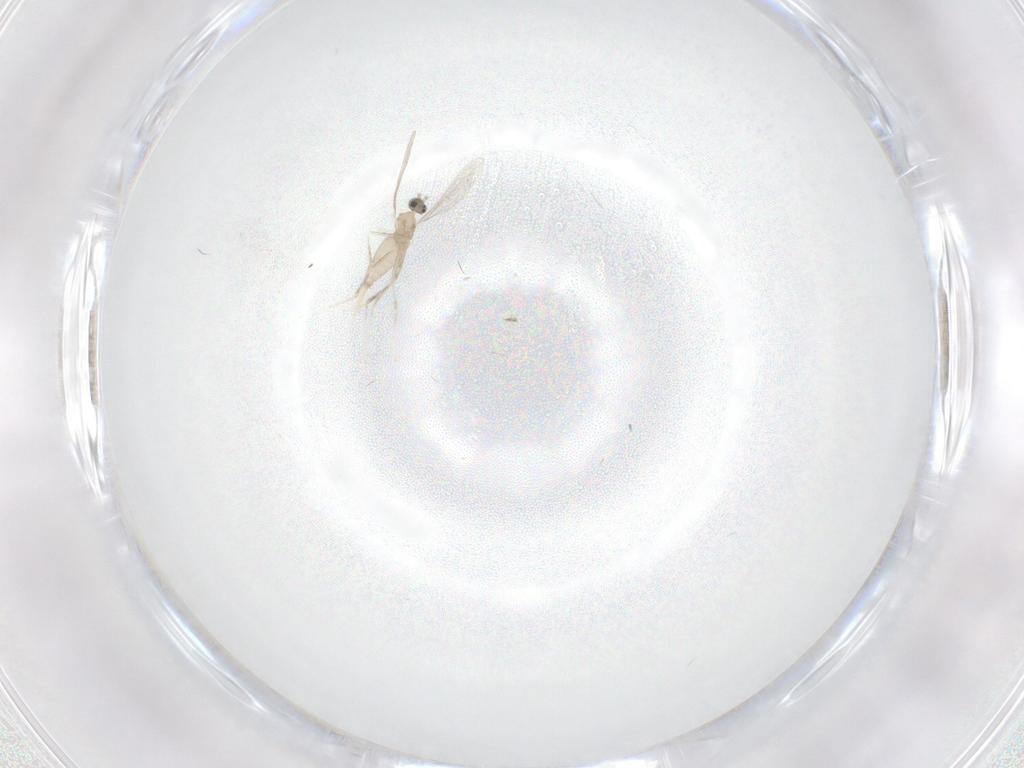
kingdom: Animalia
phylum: Arthropoda
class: Insecta
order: Diptera
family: Cecidomyiidae
